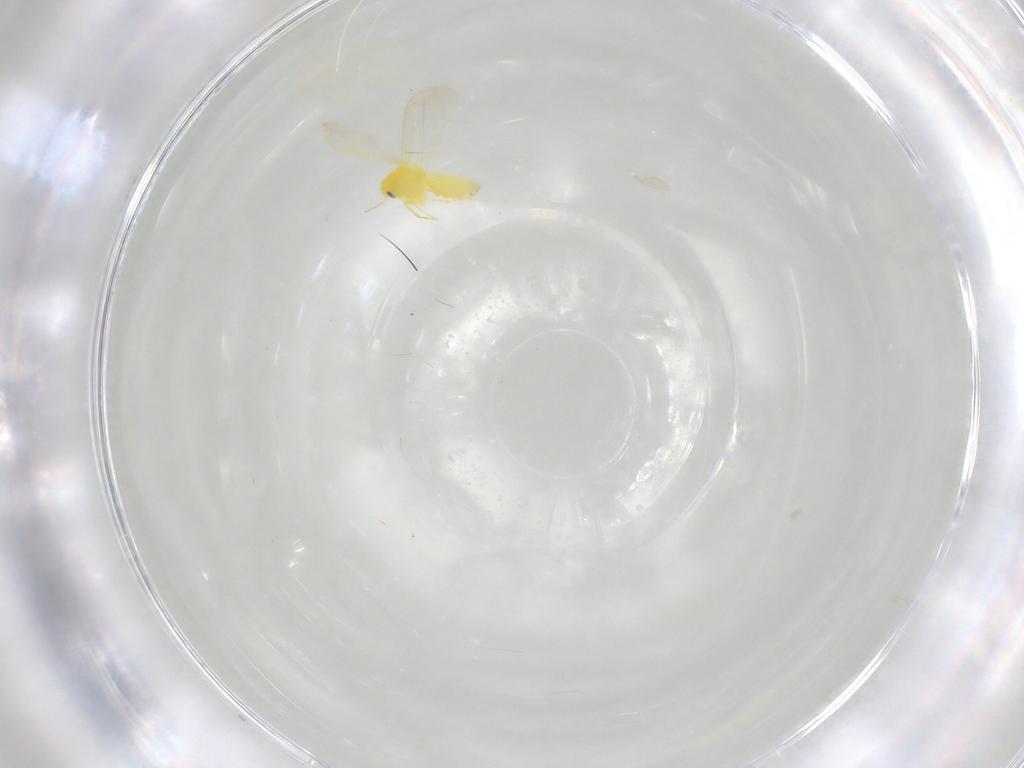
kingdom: Animalia
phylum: Arthropoda
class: Insecta
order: Hemiptera
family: Aleyrodidae
